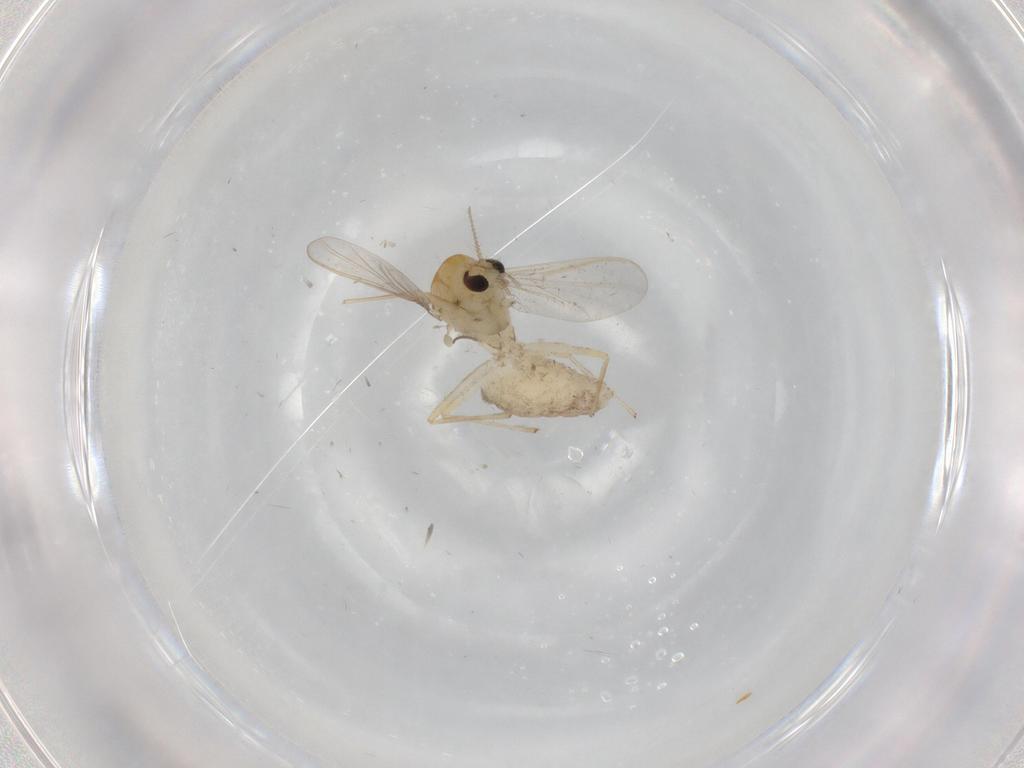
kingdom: Animalia
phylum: Arthropoda
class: Insecta
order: Diptera
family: Chironomidae
